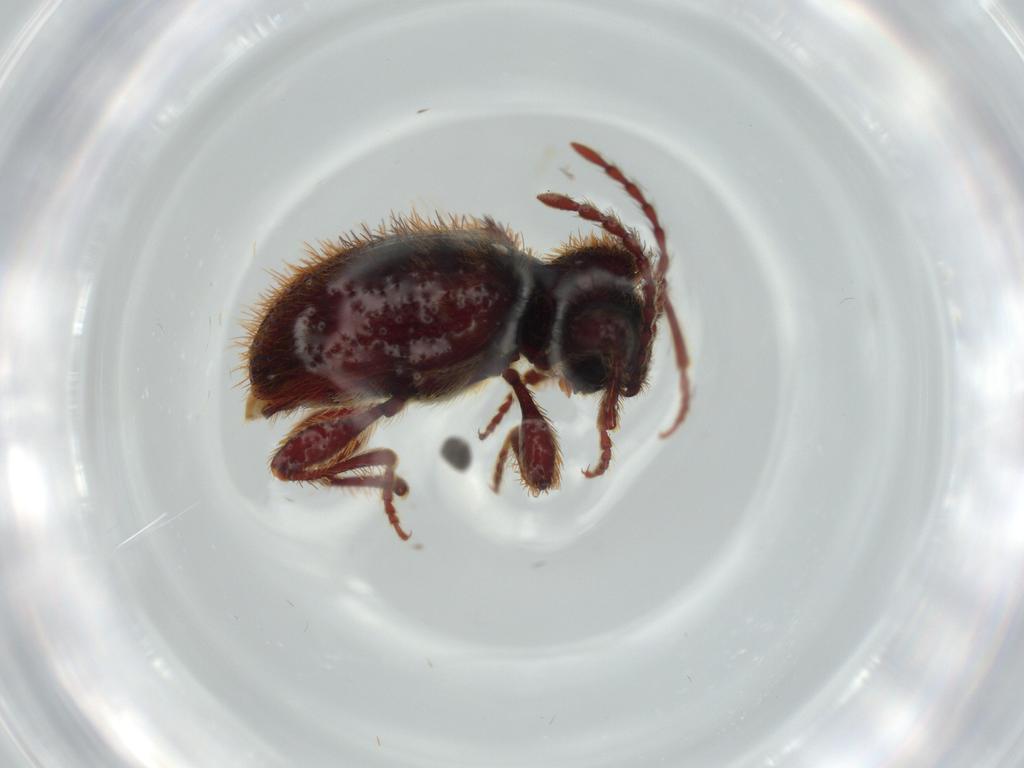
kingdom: Animalia
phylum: Arthropoda
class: Insecta
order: Coleoptera
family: Ptinidae
